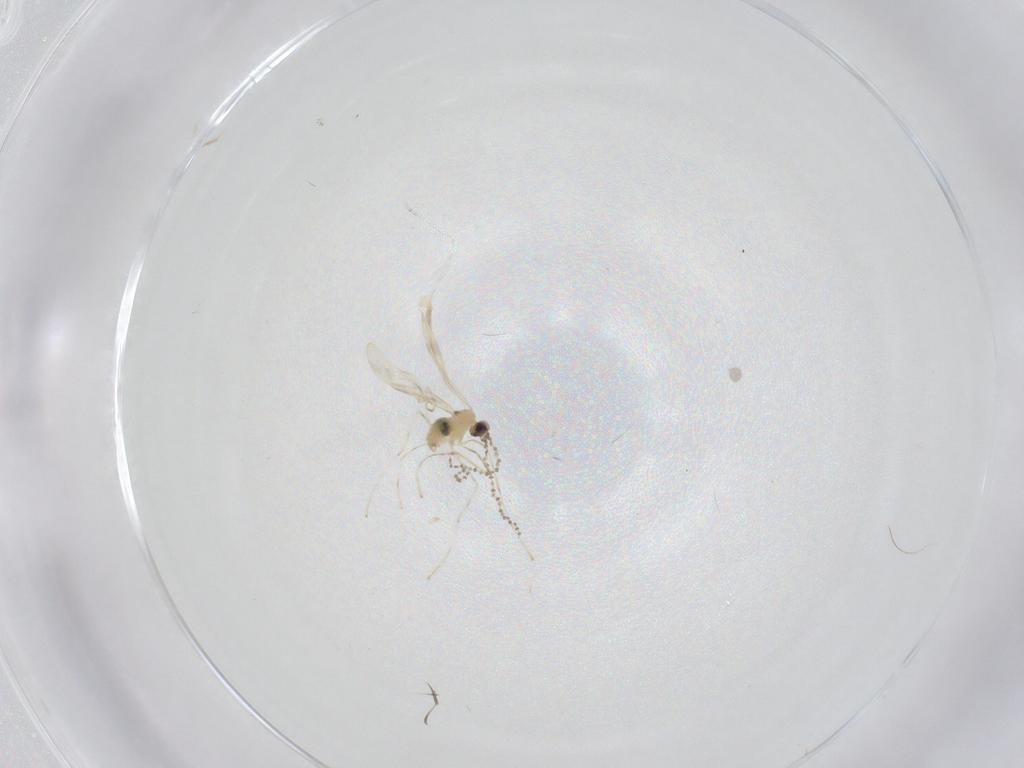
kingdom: Animalia
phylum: Arthropoda
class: Insecta
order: Diptera
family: Cecidomyiidae
